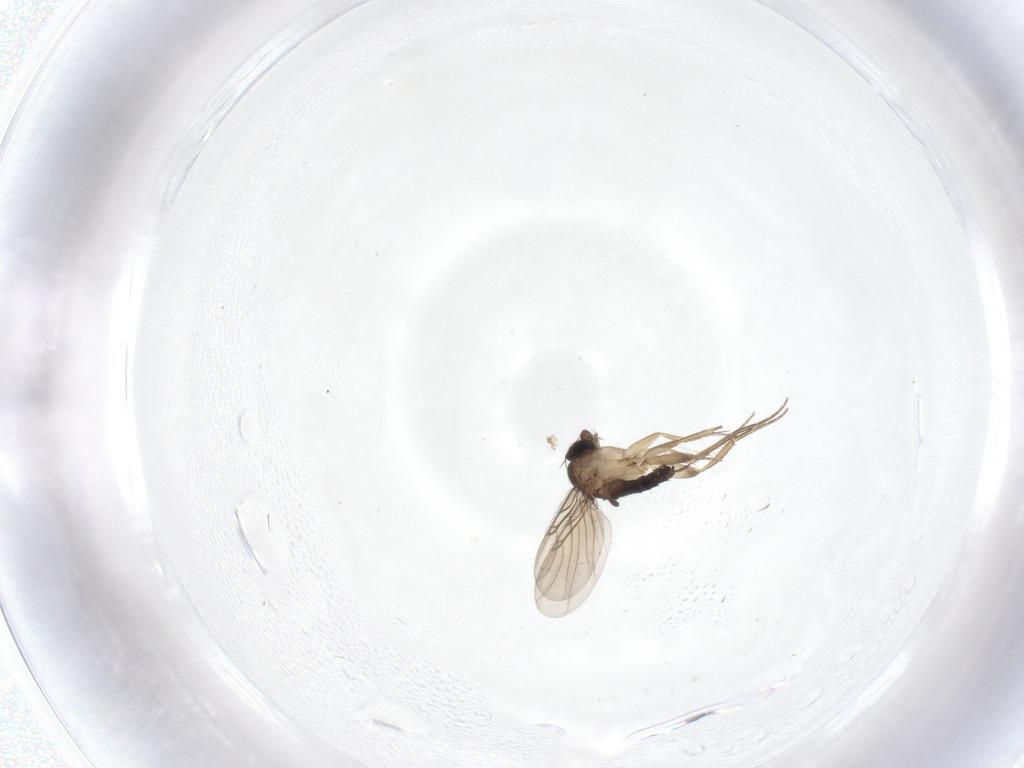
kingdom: Animalia
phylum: Arthropoda
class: Insecta
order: Diptera
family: Phoridae
